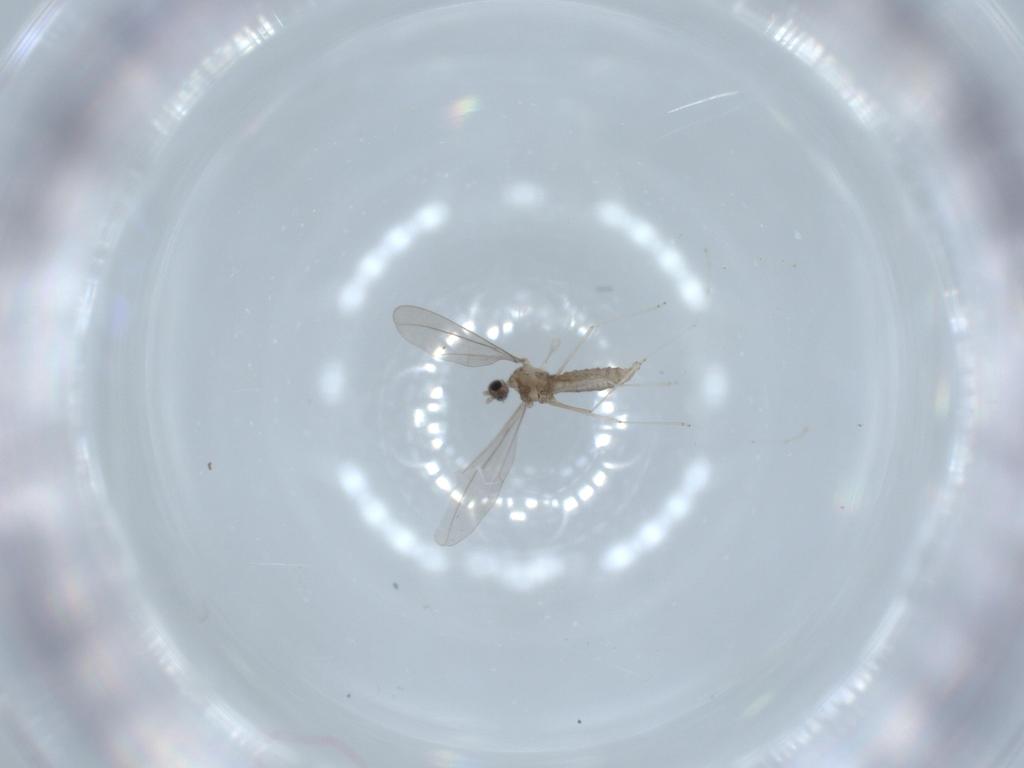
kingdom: Animalia
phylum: Arthropoda
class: Insecta
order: Diptera
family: Cecidomyiidae
